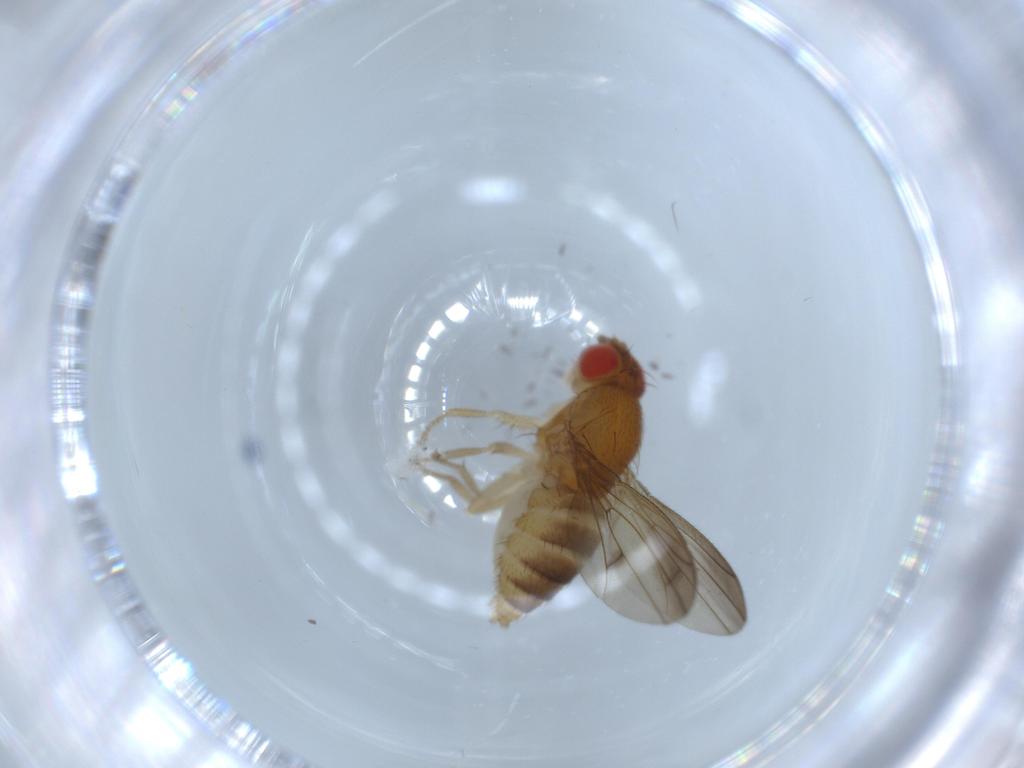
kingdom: Animalia
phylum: Arthropoda
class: Insecta
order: Diptera
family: Drosophilidae
